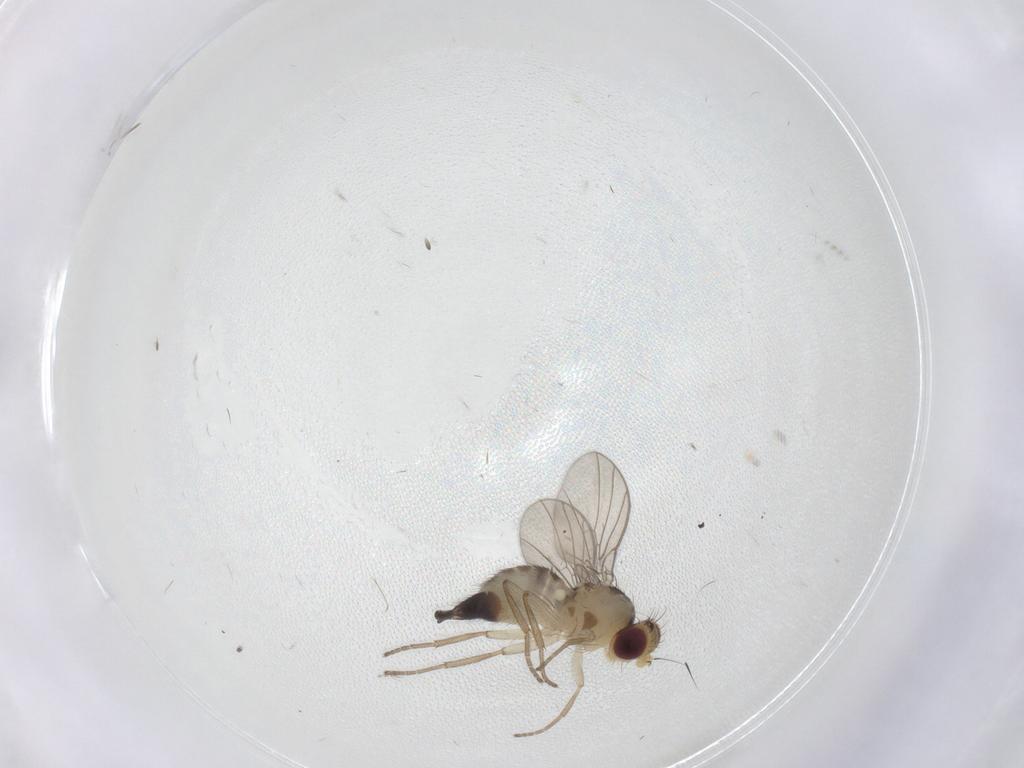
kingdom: Animalia
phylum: Arthropoda
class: Insecta
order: Diptera
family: Agromyzidae
